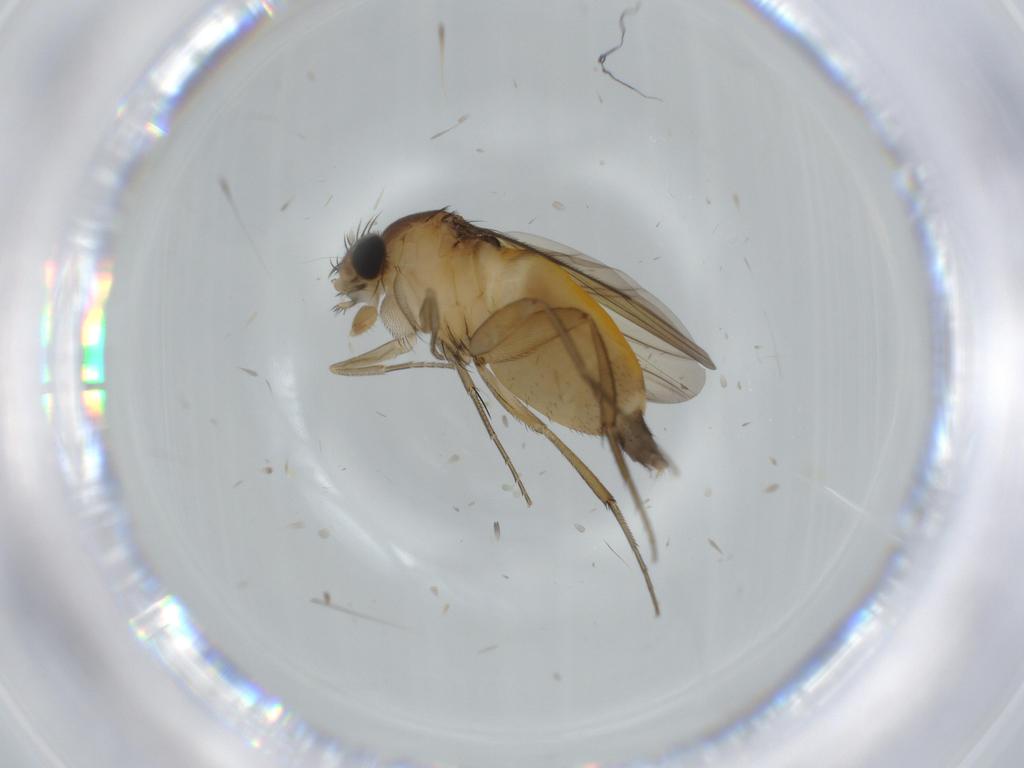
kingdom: Animalia
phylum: Arthropoda
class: Insecta
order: Diptera
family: Phoridae
